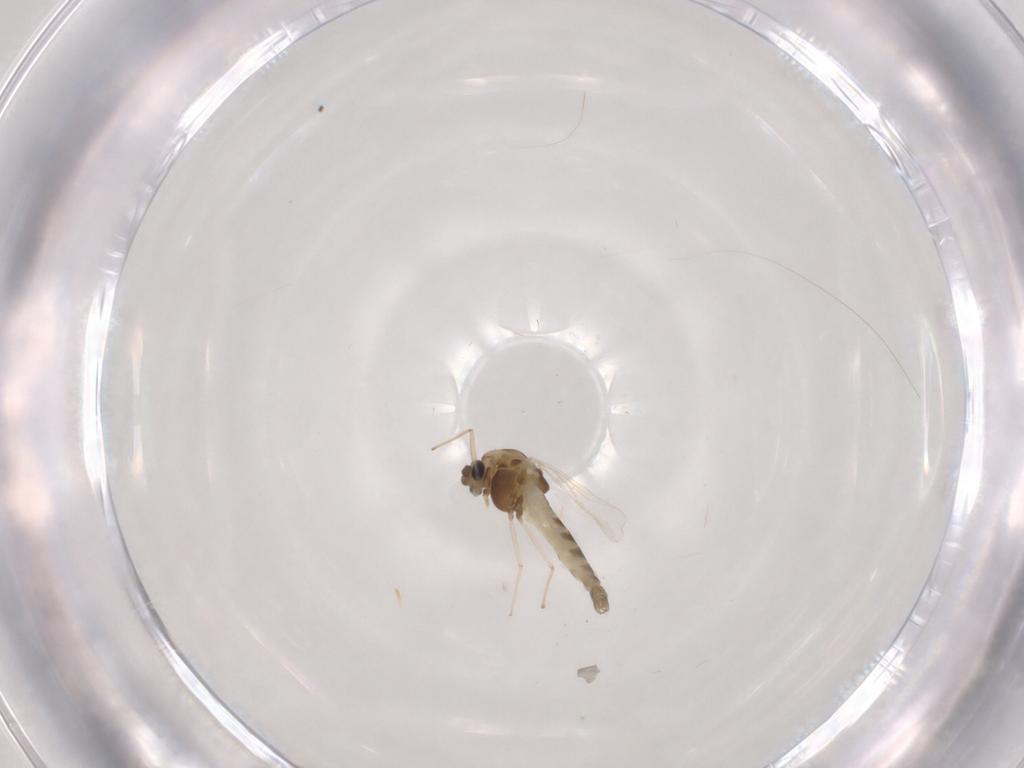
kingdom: Animalia
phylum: Arthropoda
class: Insecta
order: Diptera
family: Chironomidae
